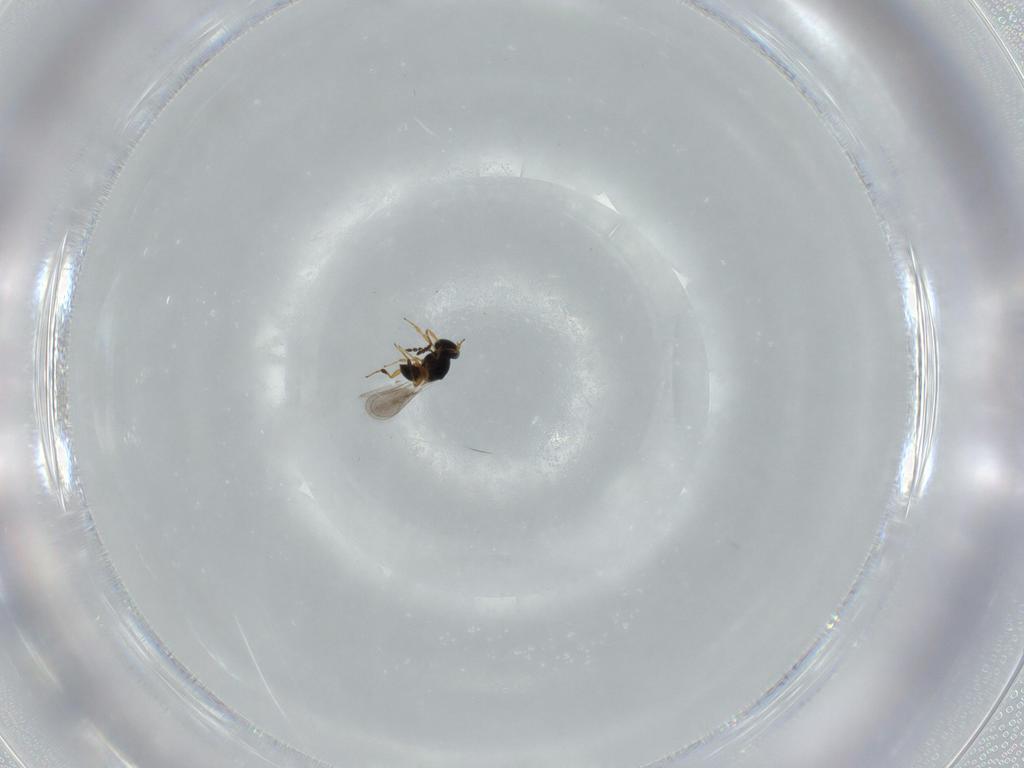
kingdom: Animalia
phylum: Arthropoda
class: Insecta
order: Hymenoptera
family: Platygastridae
